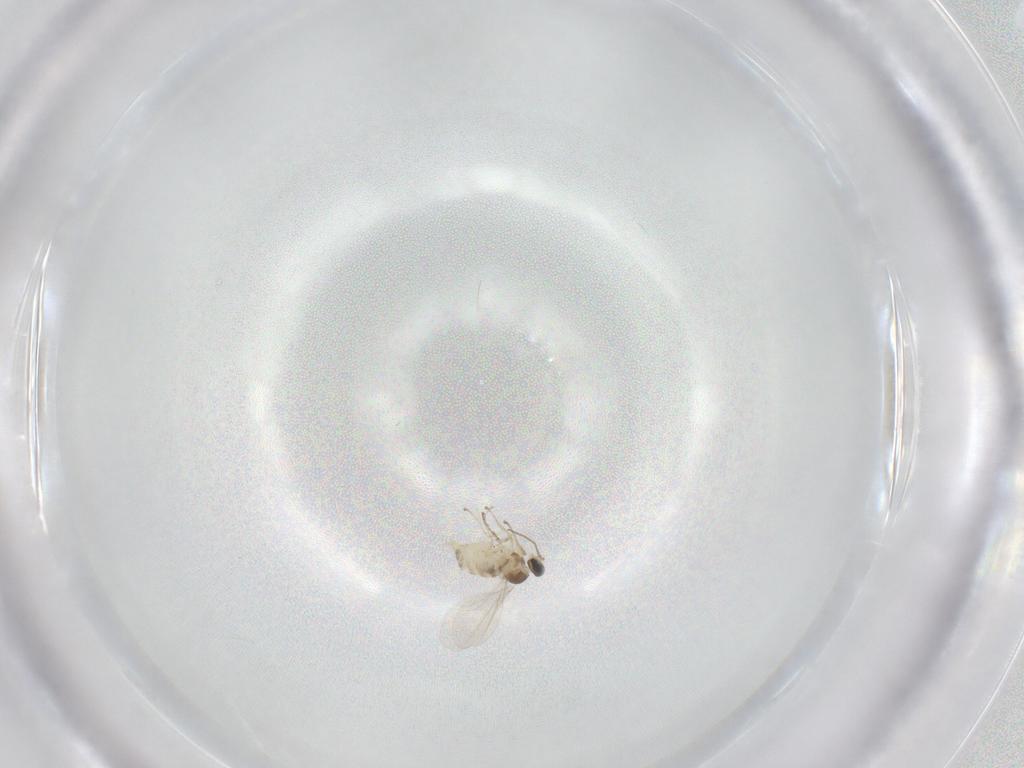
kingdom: Animalia
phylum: Arthropoda
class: Insecta
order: Diptera
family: Cecidomyiidae
